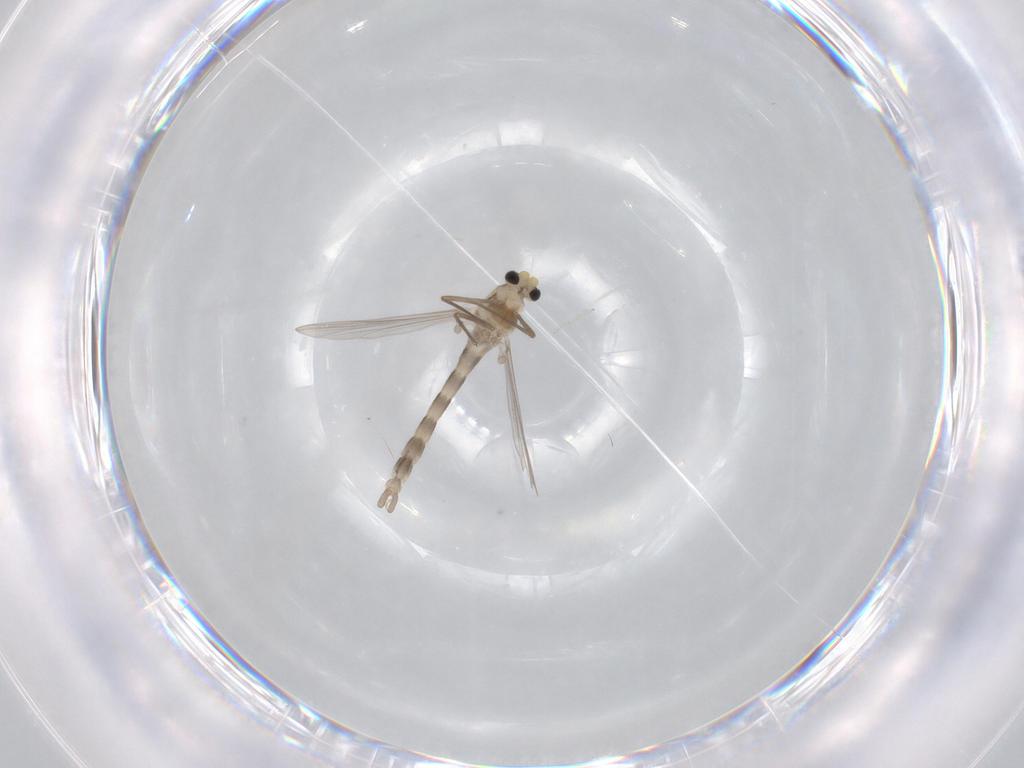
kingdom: Animalia
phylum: Arthropoda
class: Insecta
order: Diptera
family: Chironomidae
